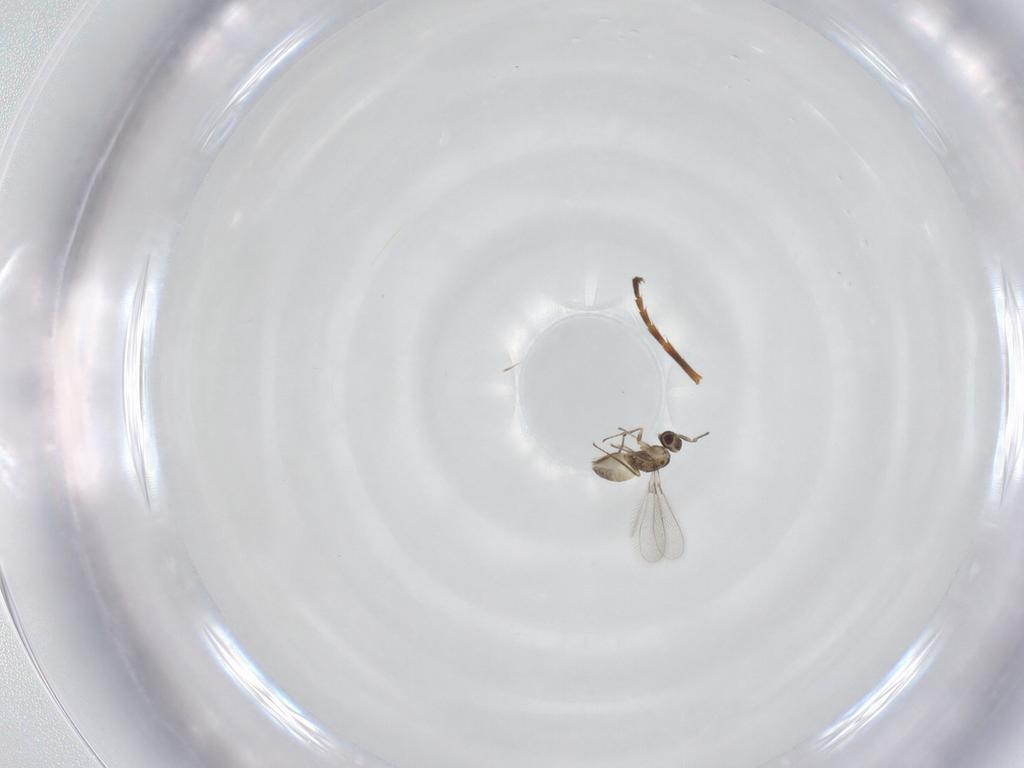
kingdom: Animalia
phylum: Arthropoda
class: Insecta
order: Hymenoptera
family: Mymaridae
